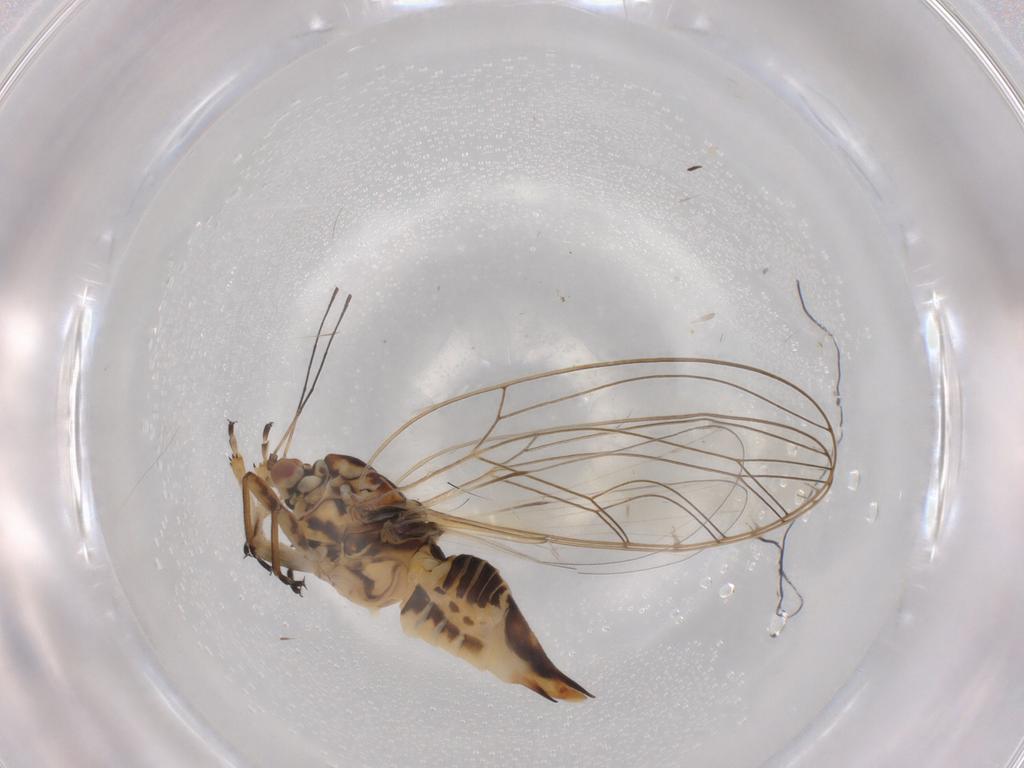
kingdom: Animalia
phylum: Arthropoda
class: Insecta
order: Hemiptera
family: Triozidae
